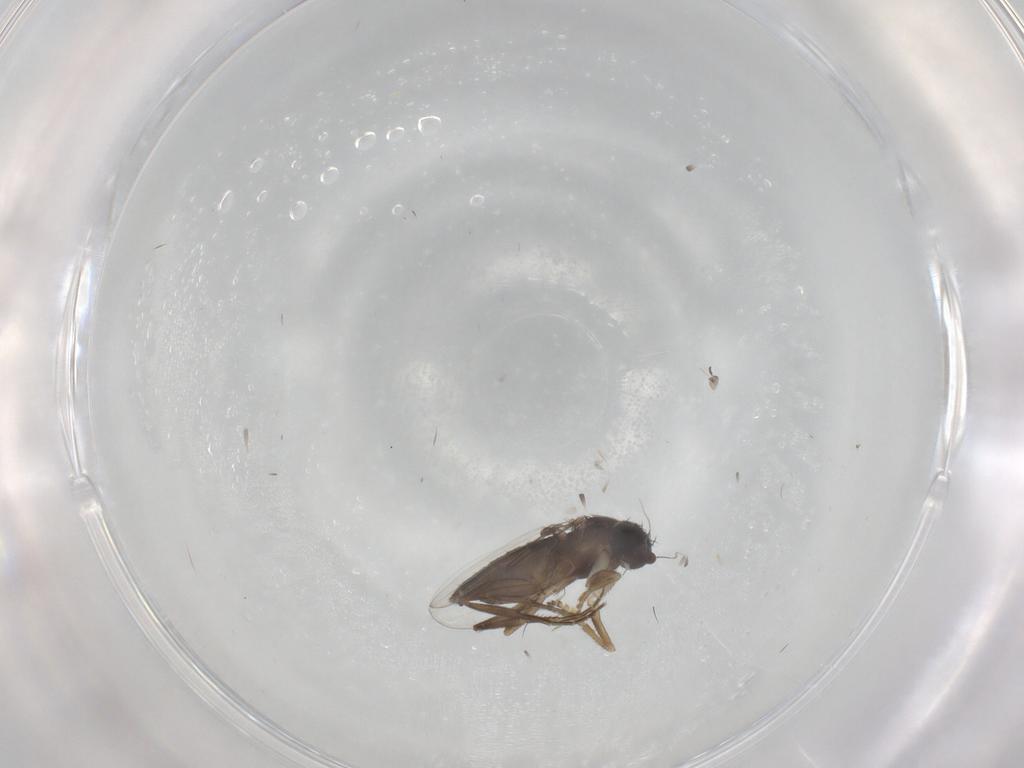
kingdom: Animalia
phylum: Arthropoda
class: Insecta
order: Diptera
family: Phoridae
